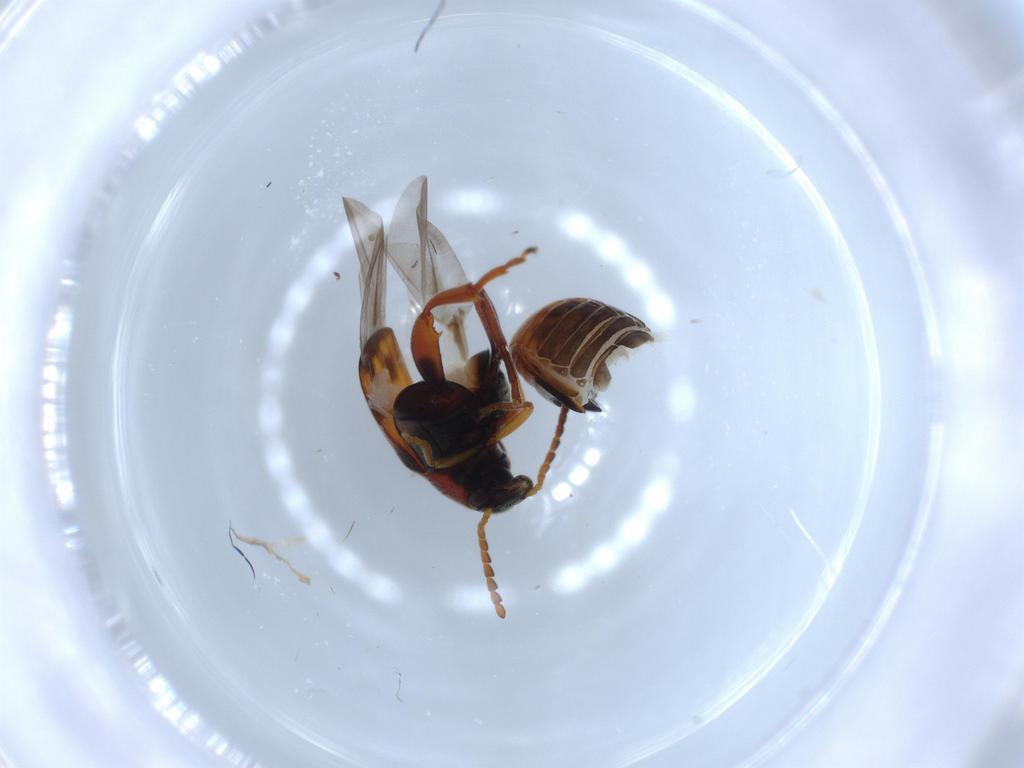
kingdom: Animalia
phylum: Arthropoda
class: Insecta
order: Coleoptera
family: Chrysomelidae
